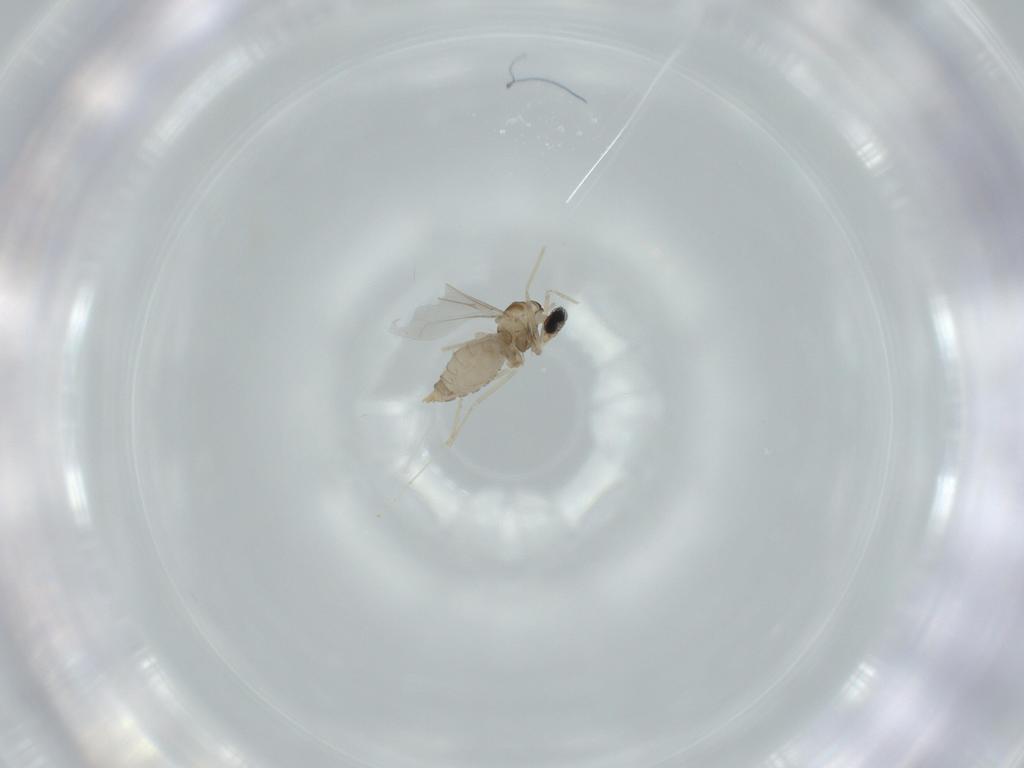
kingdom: Animalia
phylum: Arthropoda
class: Insecta
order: Diptera
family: Cecidomyiidae
